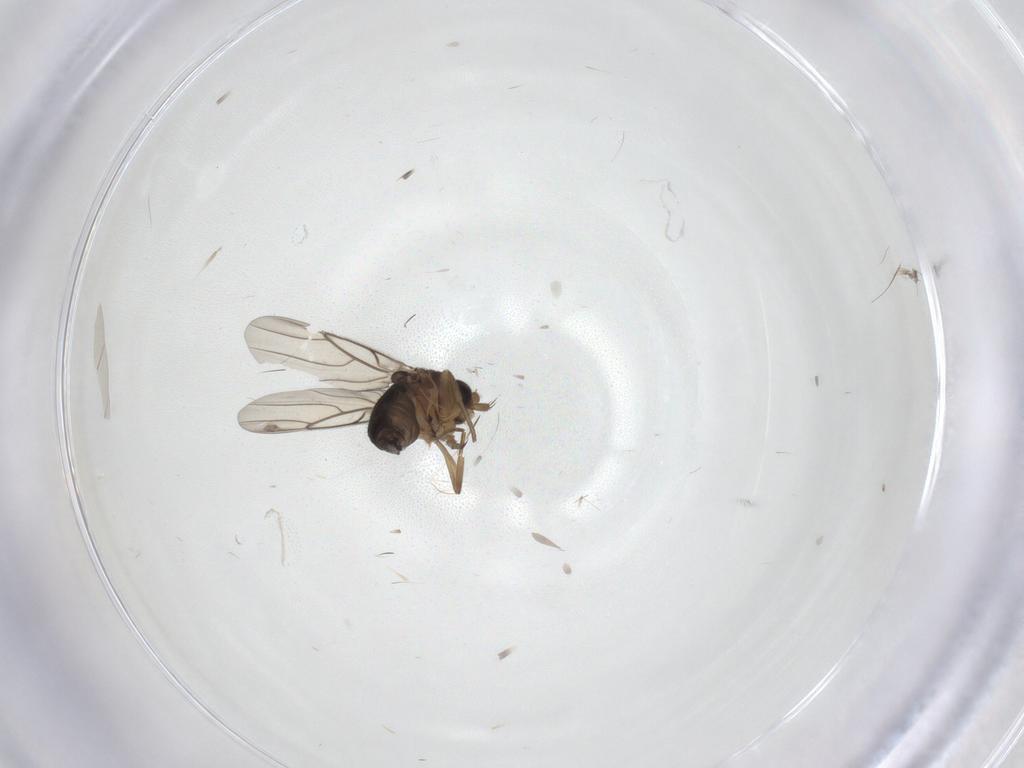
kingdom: Animalia
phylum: Arthropoda
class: Insecta
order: Diptera
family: Phoridae
